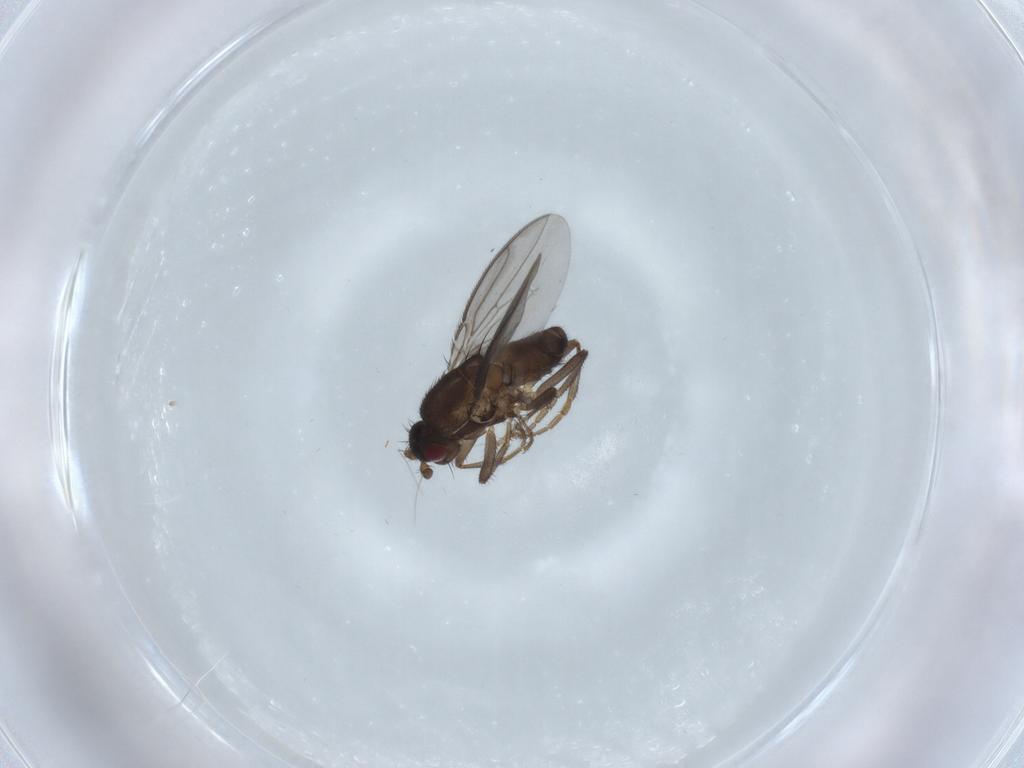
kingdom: Animalia
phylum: Arthropoda
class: Insecta
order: Diptera
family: Sphaeroceridae
